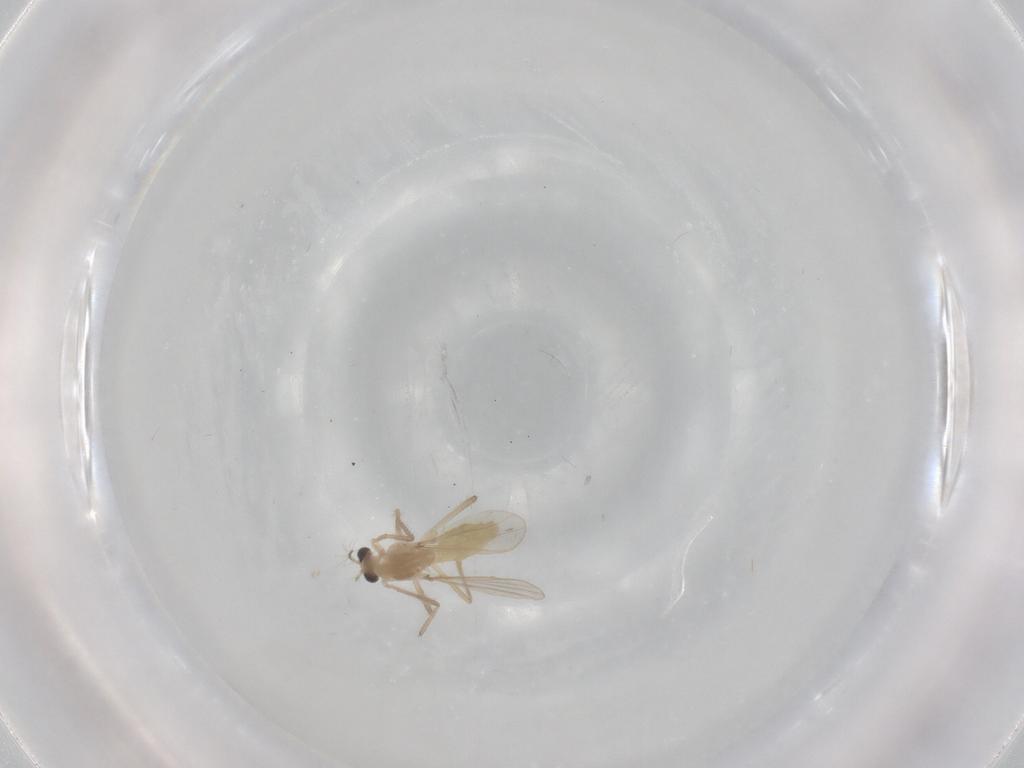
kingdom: Animalia
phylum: Arthropoda
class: Insecta
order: Diptera
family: Chironomidae
